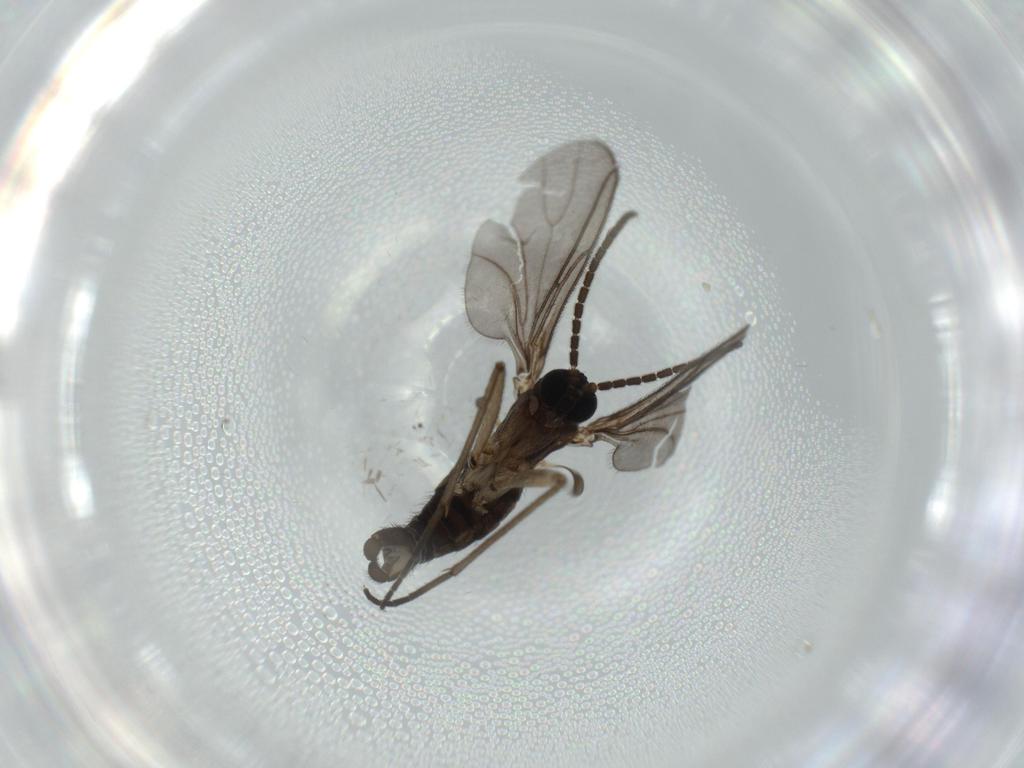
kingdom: Animalia
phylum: Arthropoda
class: Insecta
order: Diptera
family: Sciaridae
